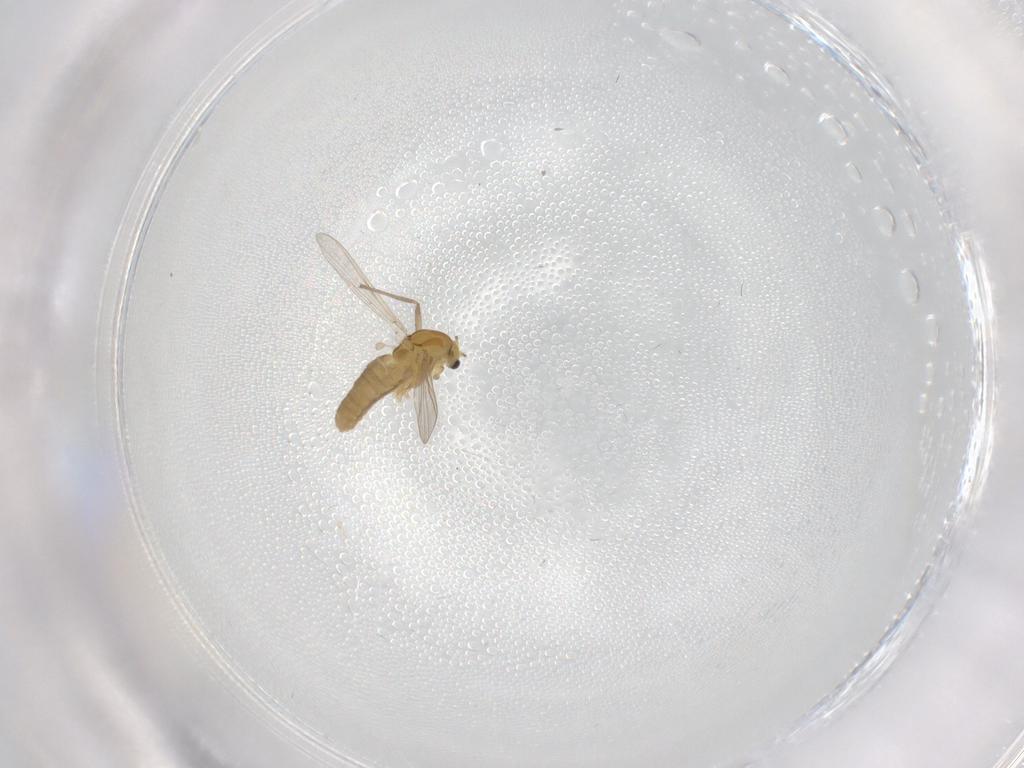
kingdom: Animalia
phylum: Arthropoda
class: Insecta
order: Diptera
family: Chironomidae
